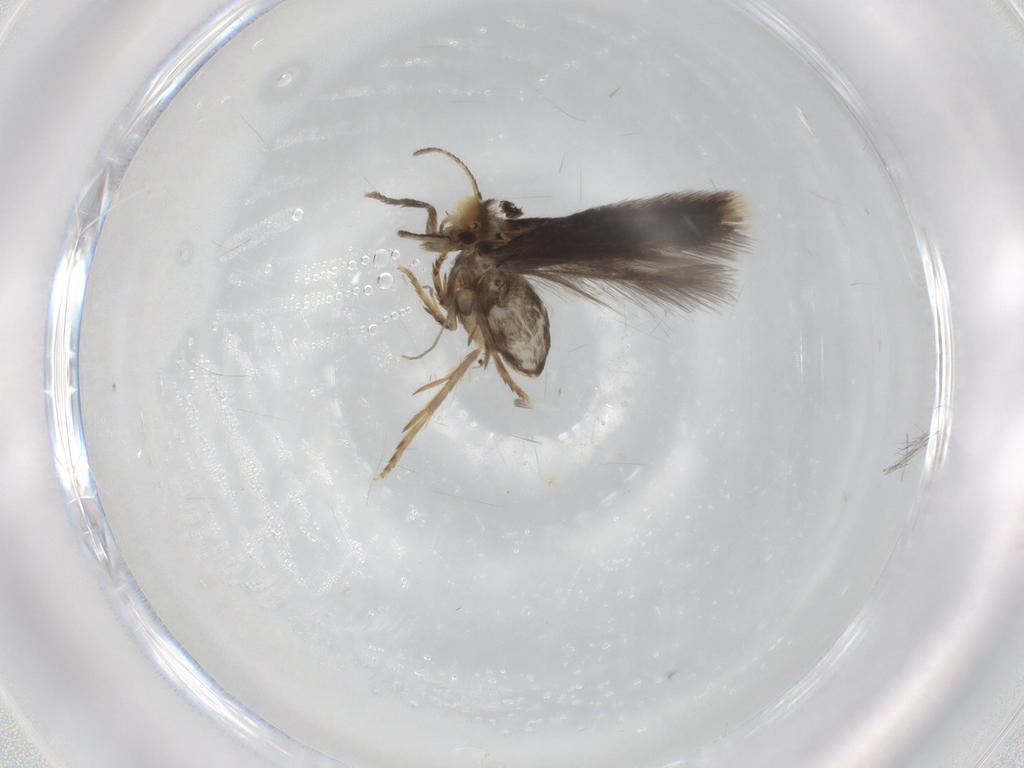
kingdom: Animalia
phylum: Arthropoda
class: Insecta
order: Lepidoptera
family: Nepticulidae
